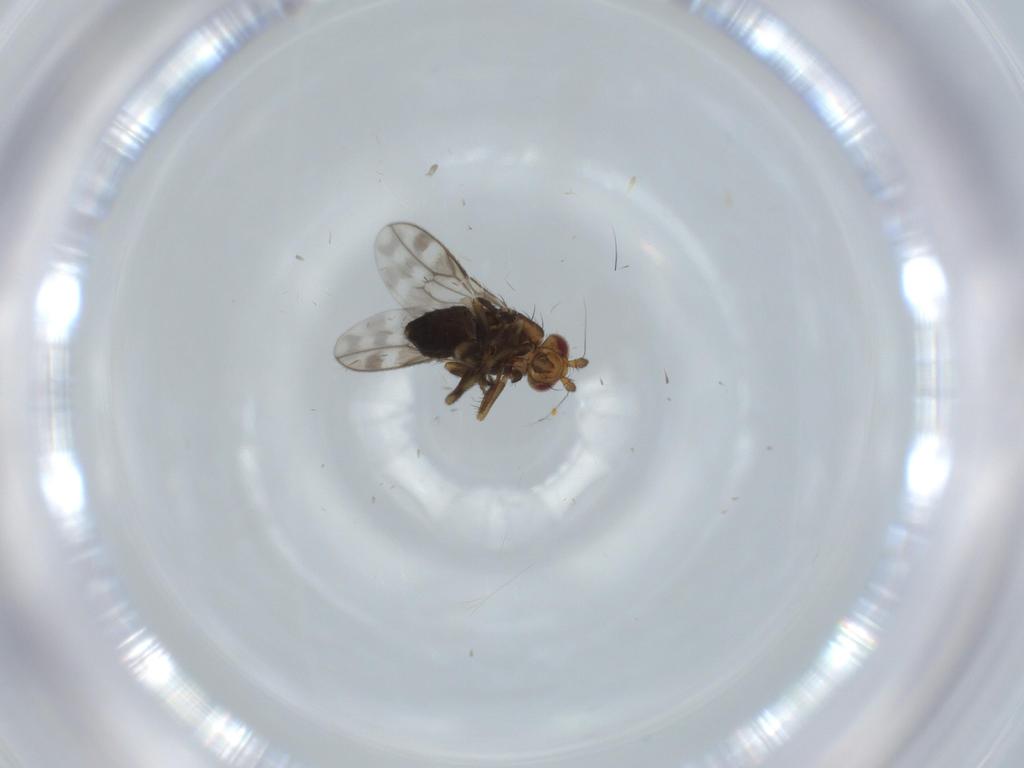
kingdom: Animalia
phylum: Arthropoda
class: Insecta
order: Diptera
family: Sphaeroceridae
